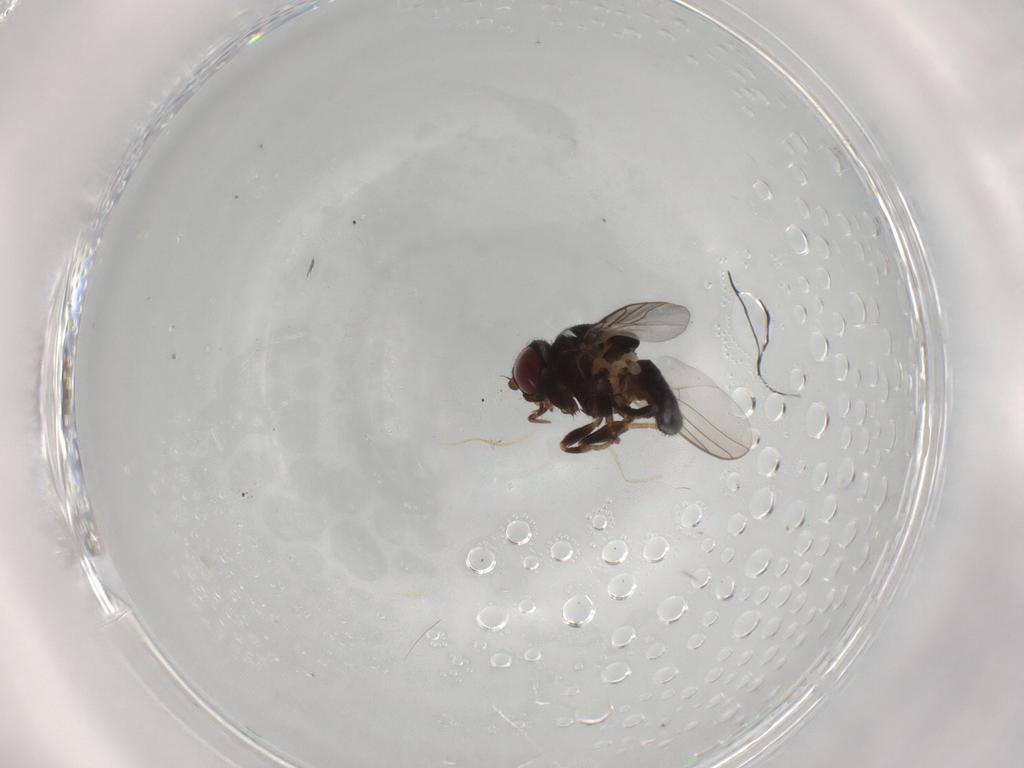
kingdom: Animalia
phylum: Arthropoda
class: Insecta
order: Diptera
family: Chloropidae
